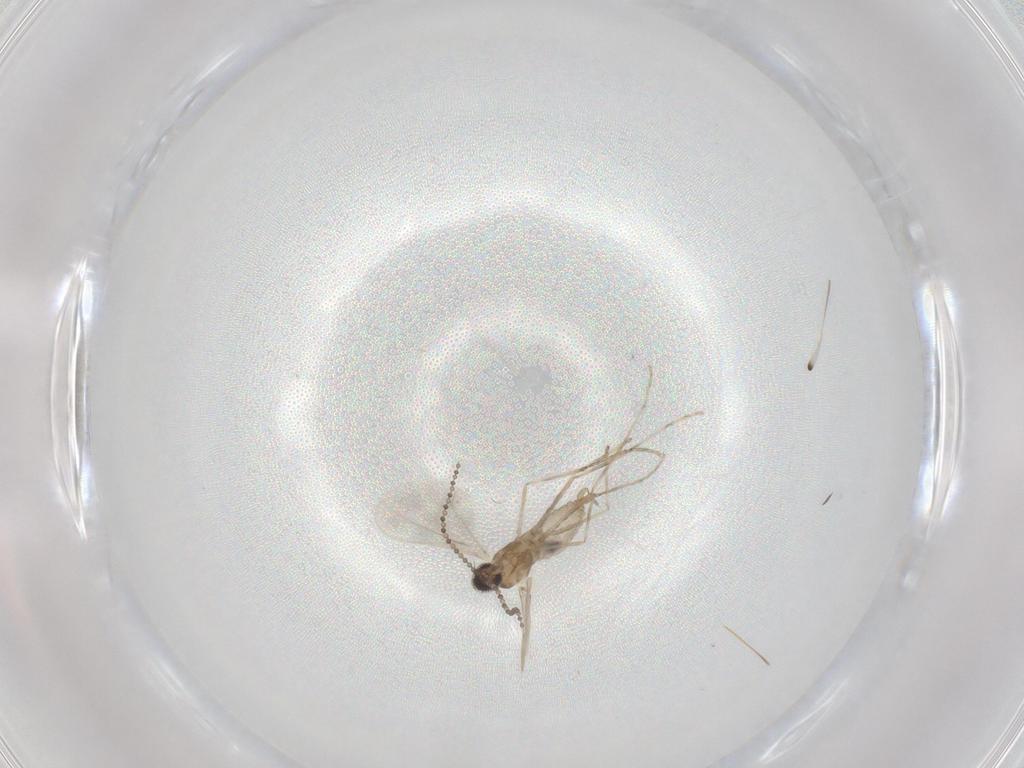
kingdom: Animalia
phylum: Arthropoda
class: Insecta
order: Diptera
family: Cecidomyiidae
